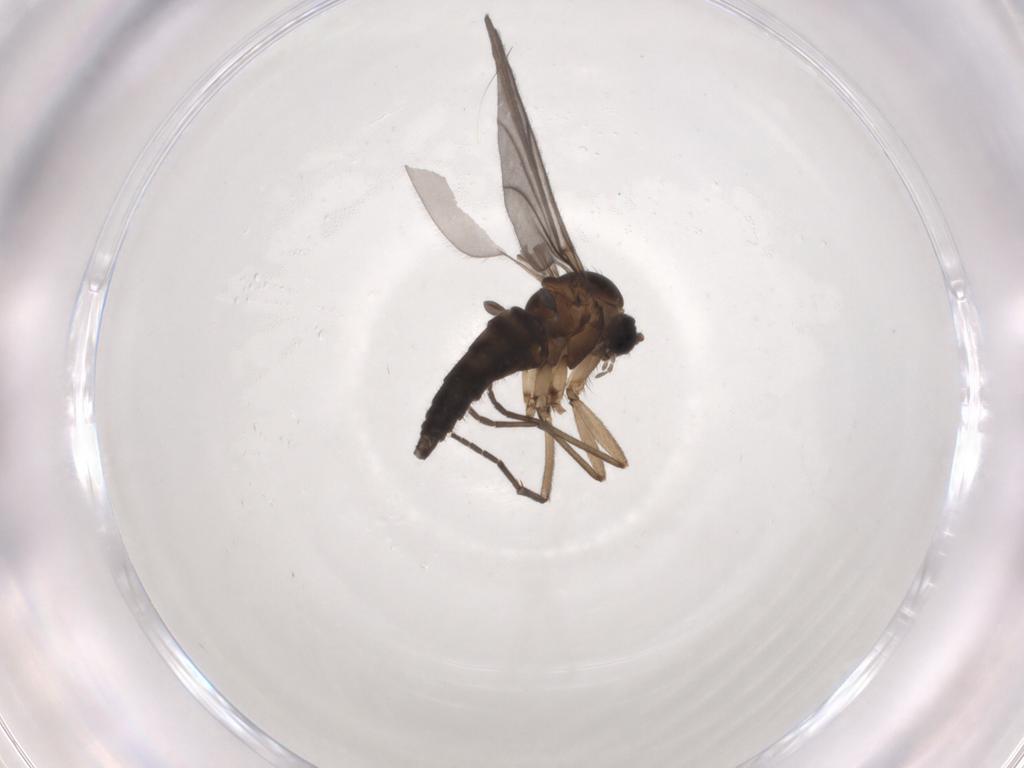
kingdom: Animalia
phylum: Arthropoda
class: Insecta
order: Diptera
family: Sciaridae
